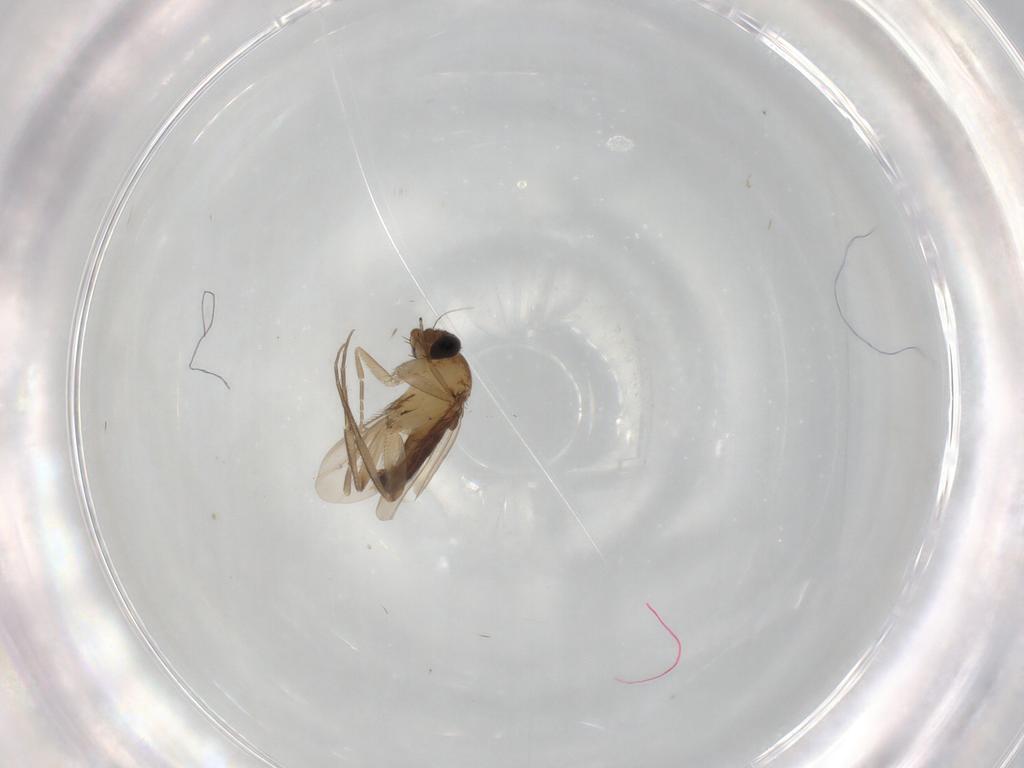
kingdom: Animalia
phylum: Arthropoda
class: Insecta
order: Diptera
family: Phoridae
